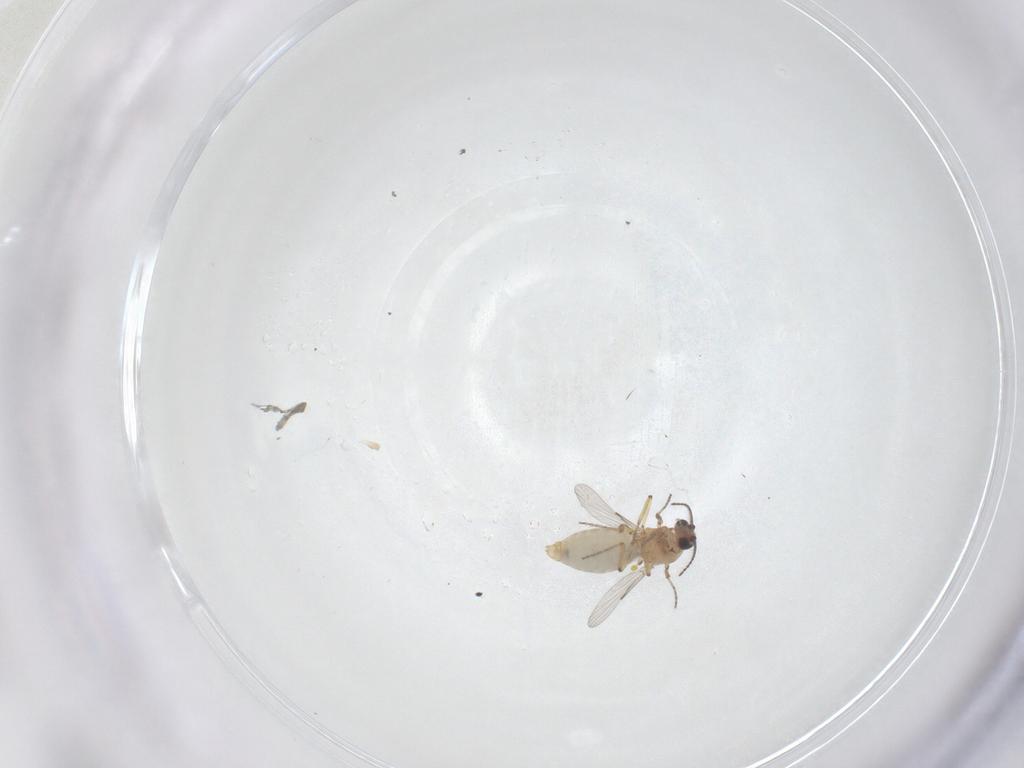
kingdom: Animalia
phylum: Arthropoda
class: Insecta
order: Diptera
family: Ceratopogonidae
